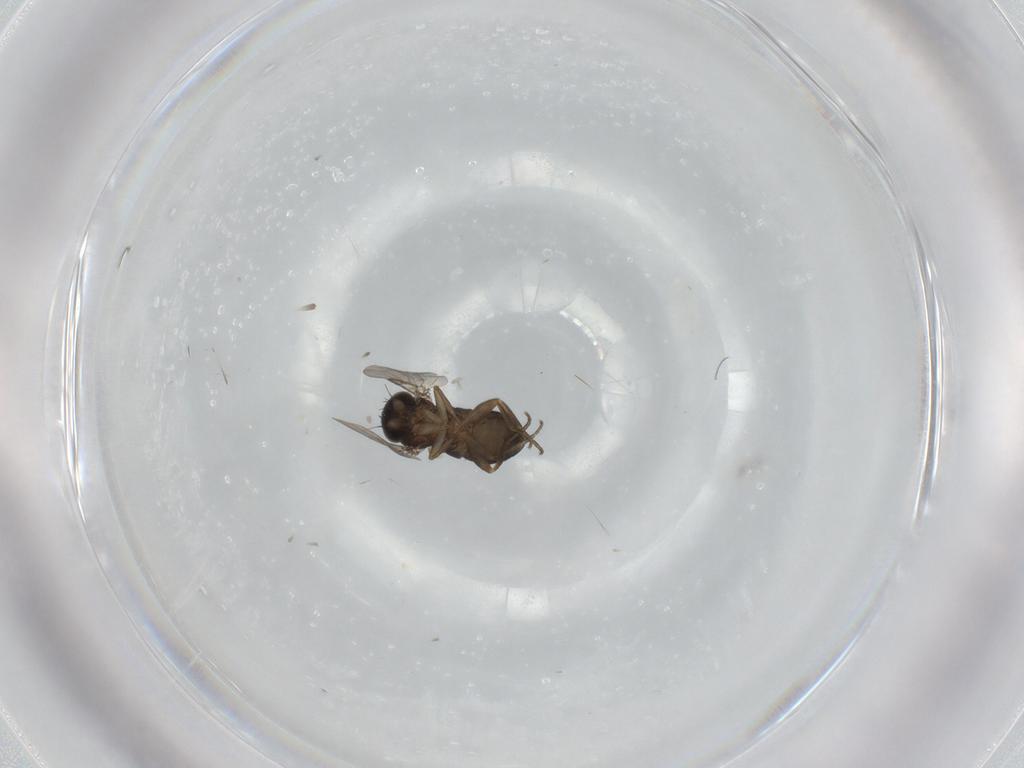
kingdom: Animalia
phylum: Arthropoda
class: Insecta
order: Diptera
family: Phoridae
